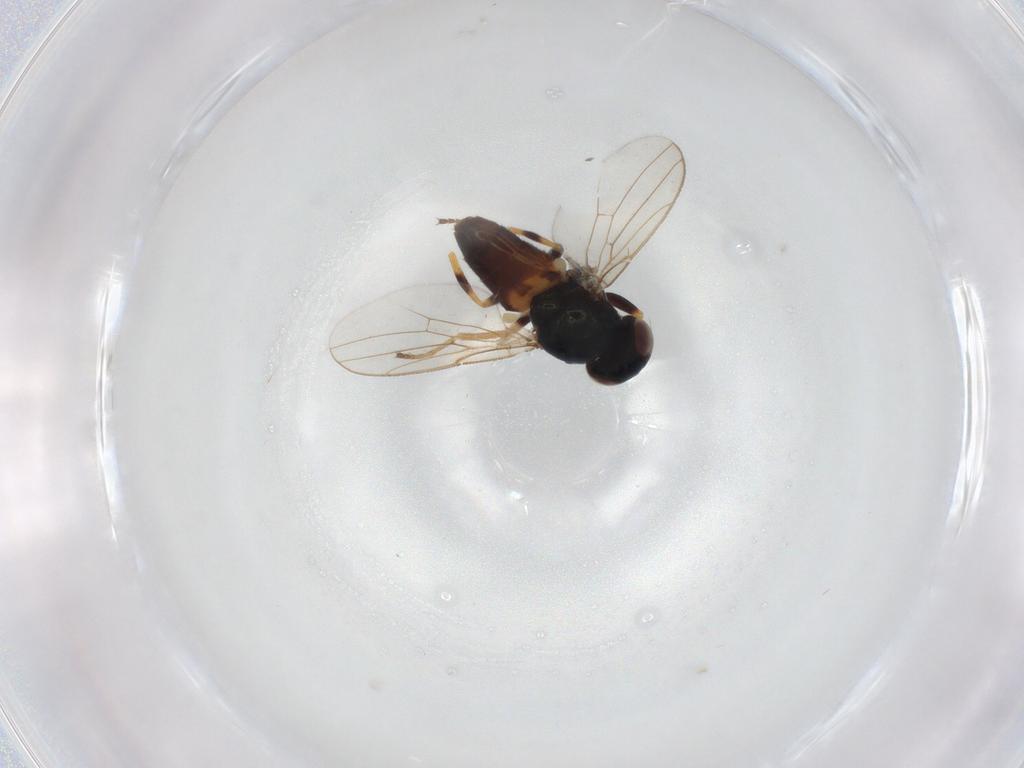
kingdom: Animalia
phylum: Arthropoda
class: Insecta
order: Diptera
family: Chloropidae
